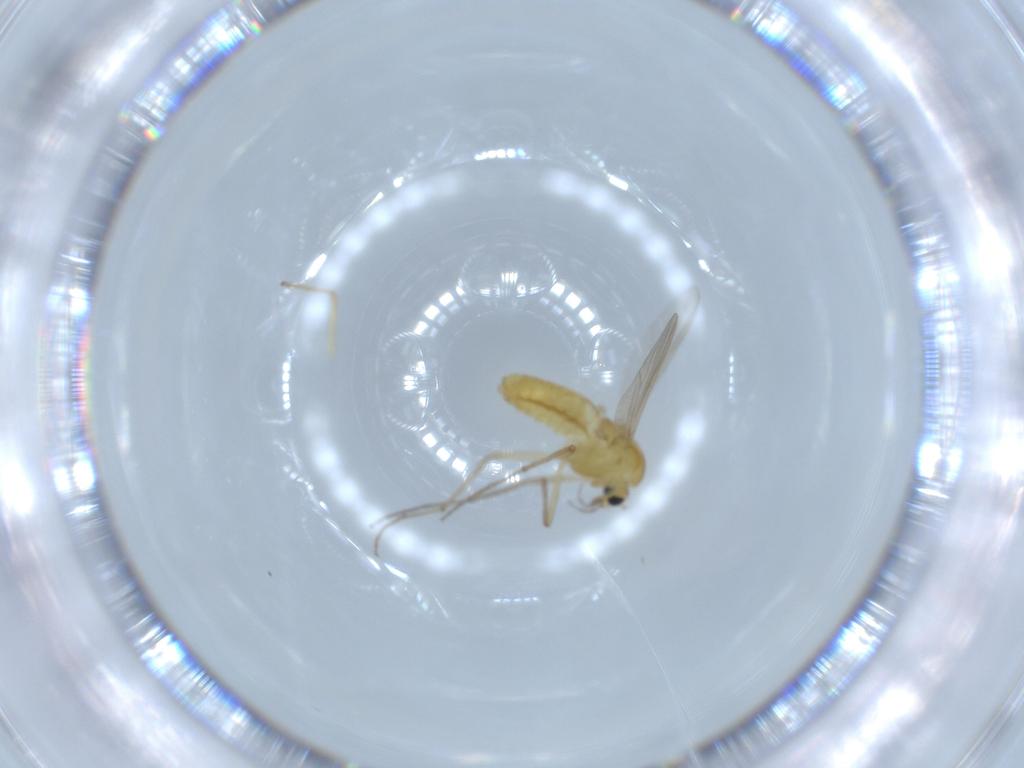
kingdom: Animalia
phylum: Arthropoda
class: Insecta
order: Diptera
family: Chironomidae
